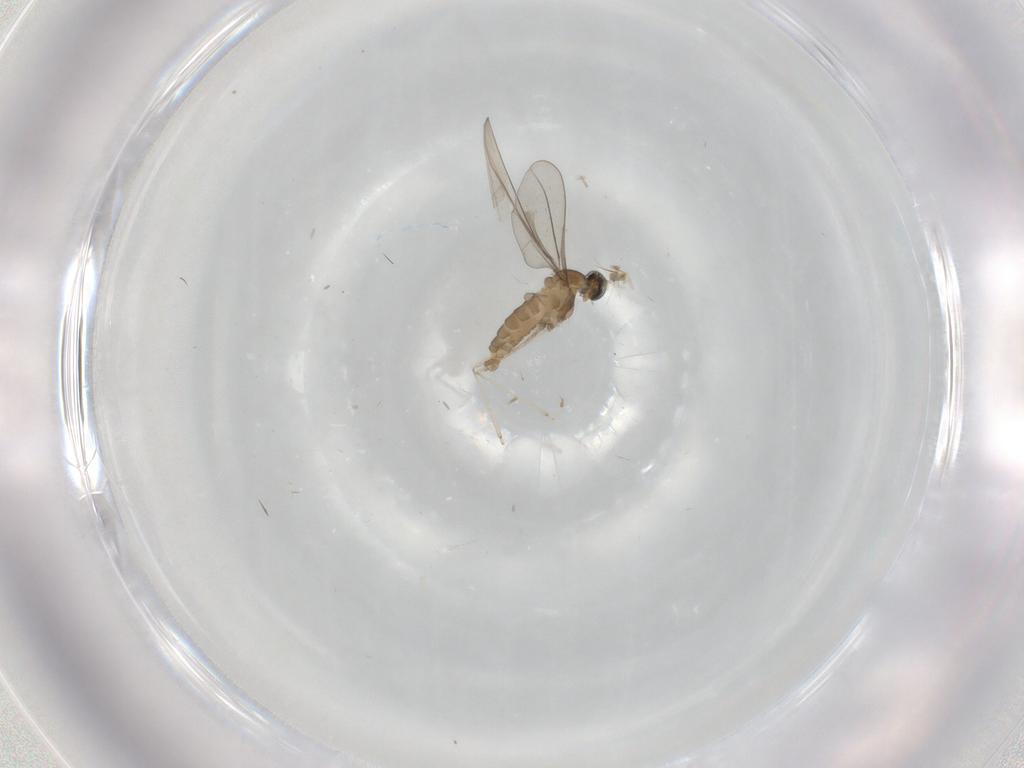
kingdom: Animalia
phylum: Arthropoda
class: Insecta
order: Diptera
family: Cecidomyiidae
